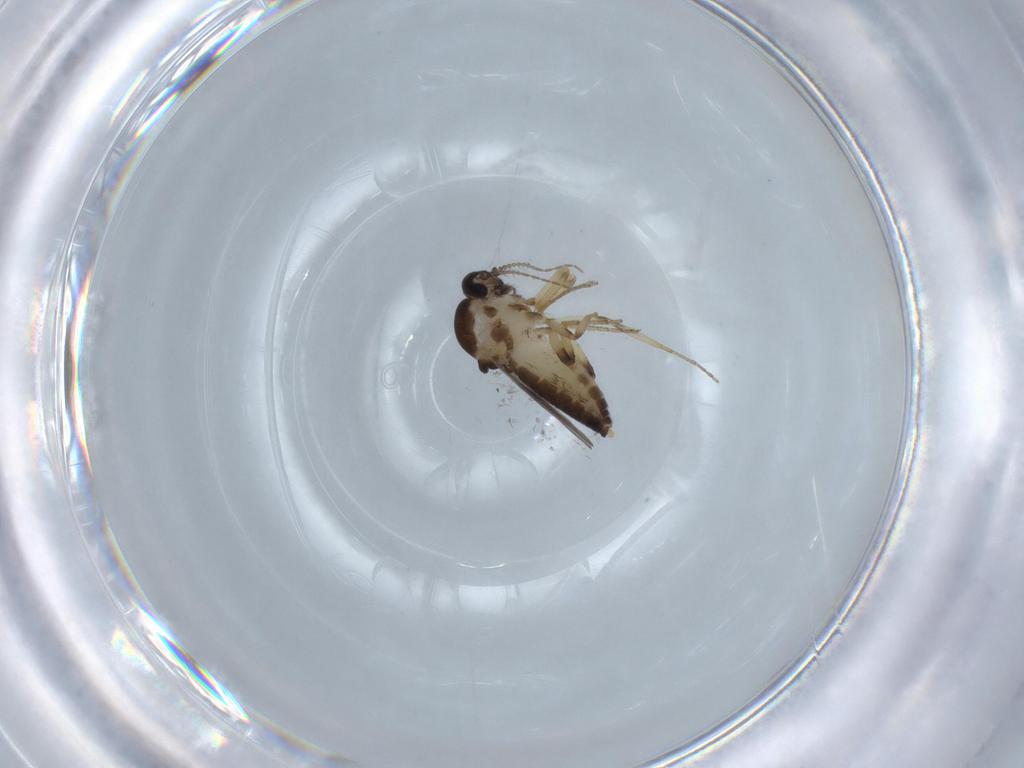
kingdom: Animalia
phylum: Arthropoda
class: Insecta
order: Diptera
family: Ceratopogonidae
